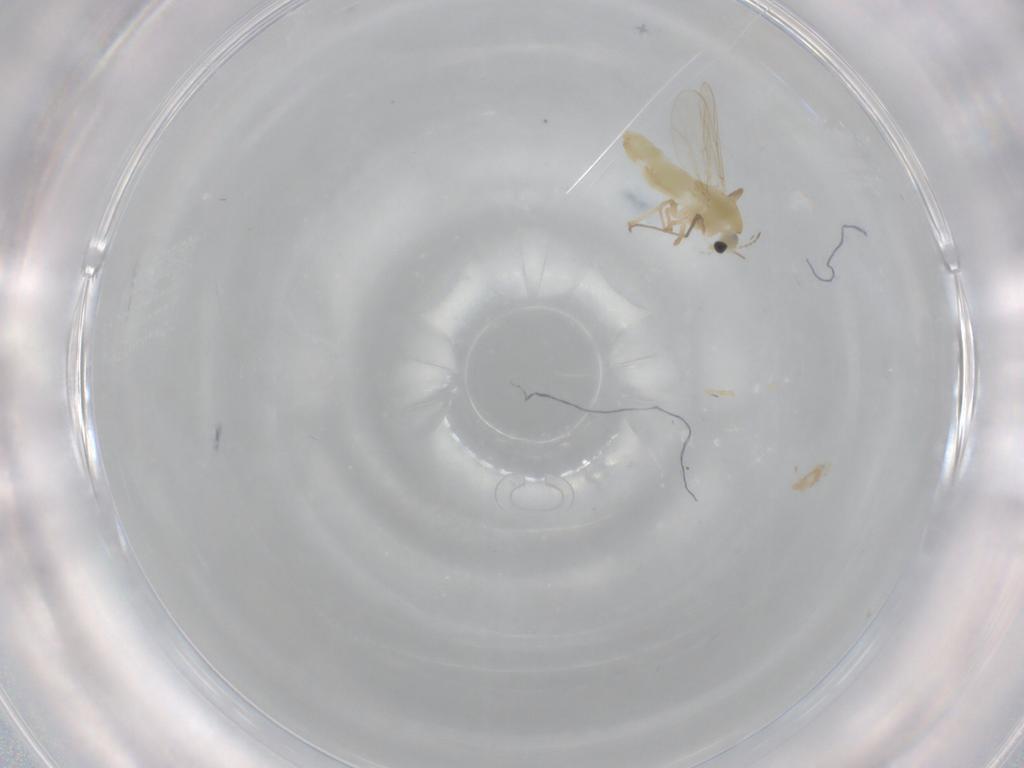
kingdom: Animalia
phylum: Arthropoda
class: Insecta
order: Diptera
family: Chironomidae
